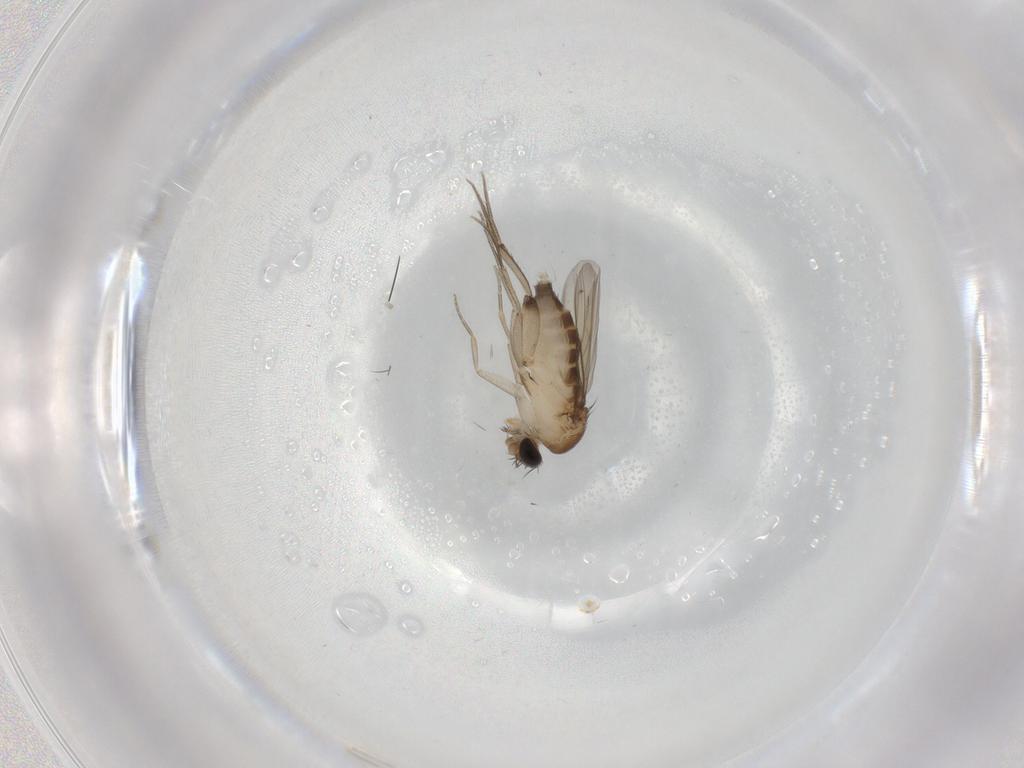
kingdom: Animalia
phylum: Arthropoda
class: Insecta
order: Diptera
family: Phoridae
